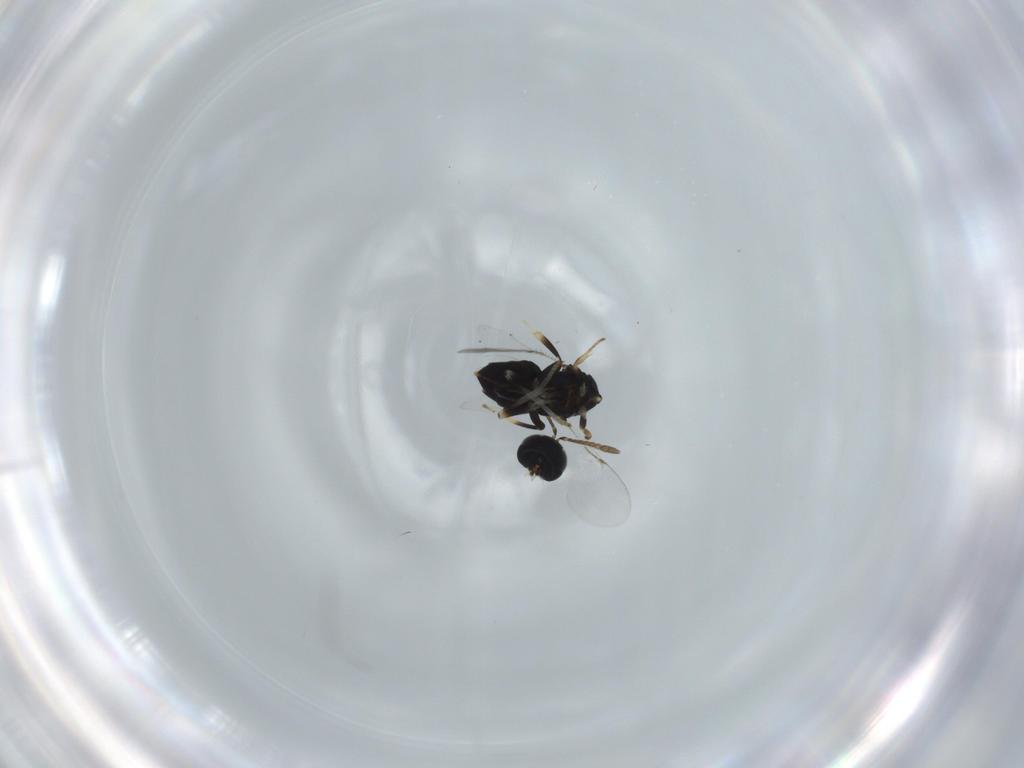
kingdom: Animalia
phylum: Arthropoda
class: Insecta
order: Hymenoptera
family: Encyrtidae
